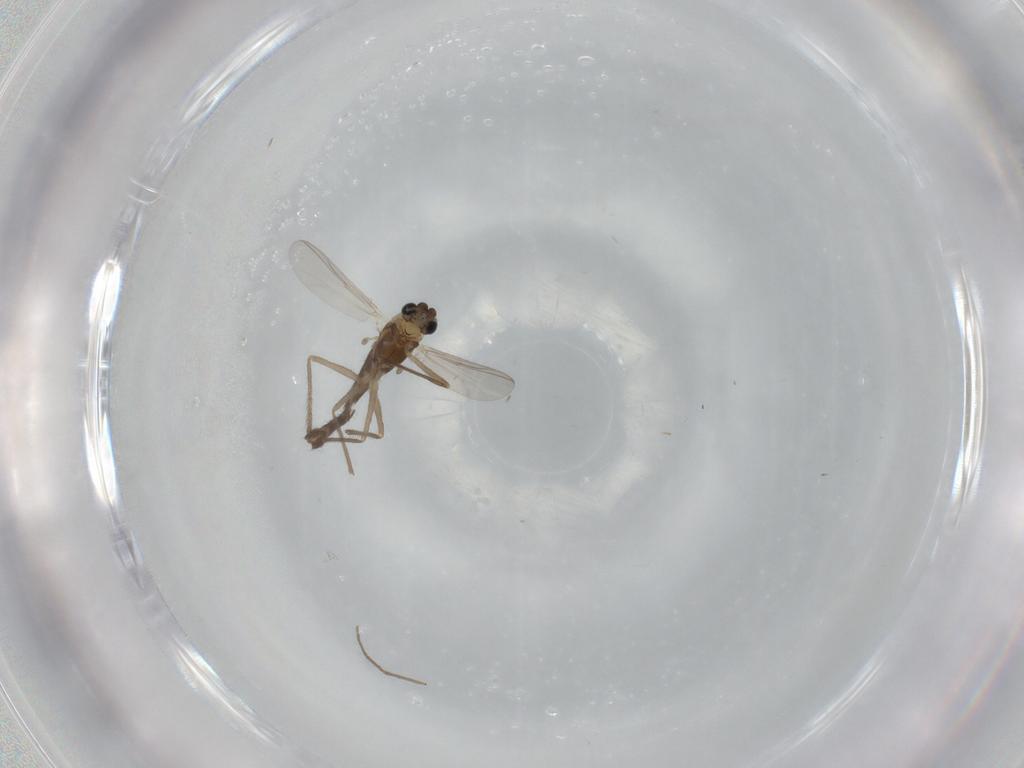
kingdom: Animalia
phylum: Arthropoda
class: Insecta
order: Diptera
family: Chironomidae
